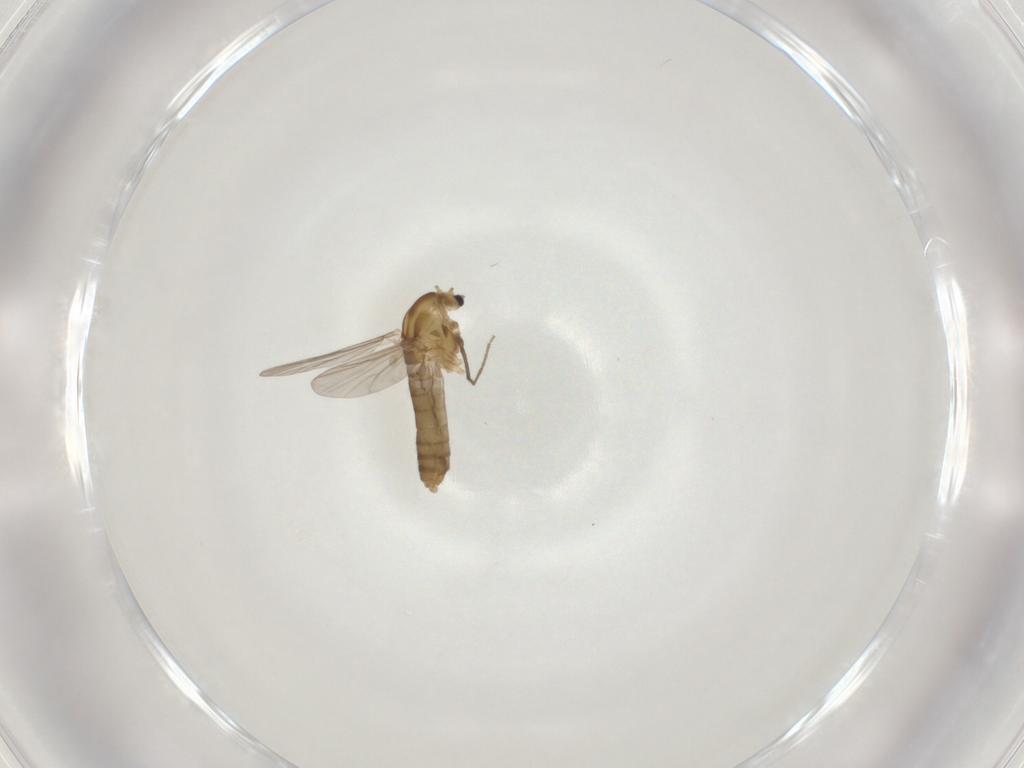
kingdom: Animalia
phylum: Arthropoda
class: Insecta
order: Diptera
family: Chironomidae
